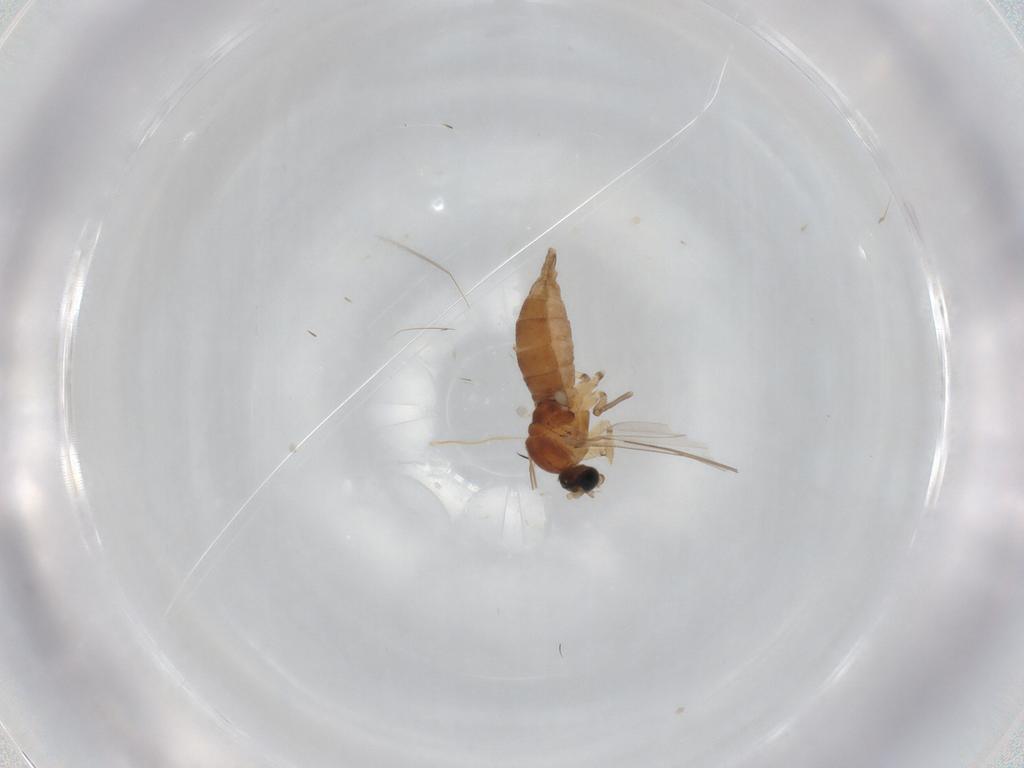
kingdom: Animalia
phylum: Arthropoda
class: Insecta
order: Diptera
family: Sciaridae
